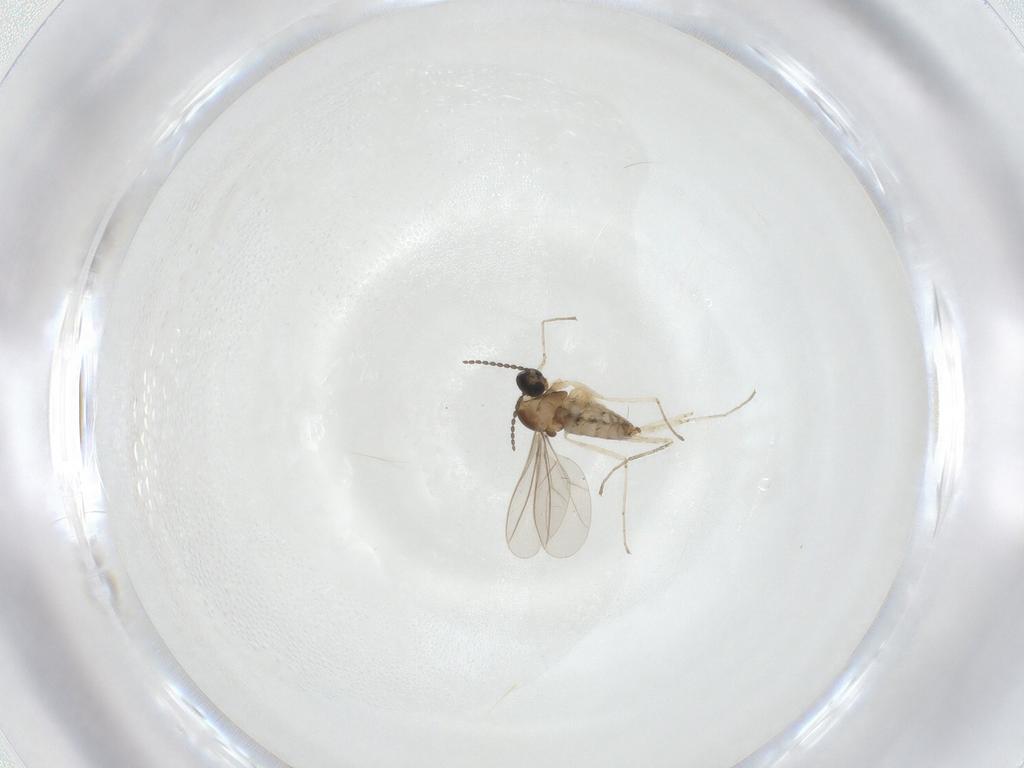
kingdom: Animalia
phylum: Arthropoda
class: Insecta
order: Diptera
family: Cecidomyiidae
